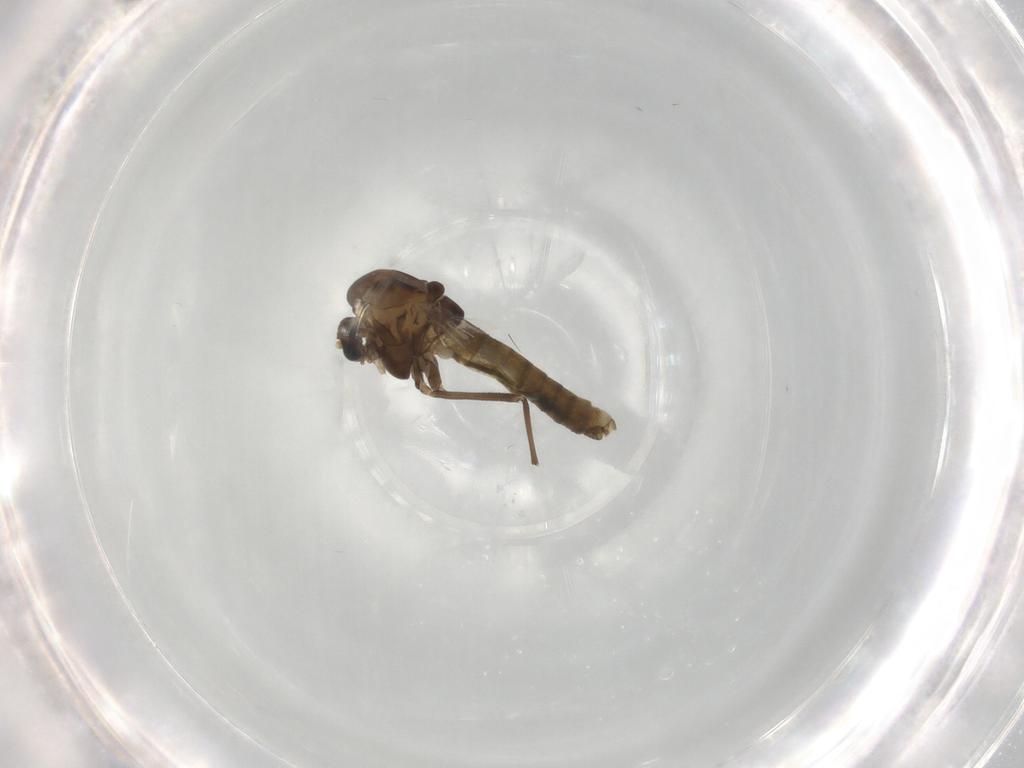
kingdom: Animalia
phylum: Arthropoda
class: Insecta
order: Diptera
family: Chironomidae
